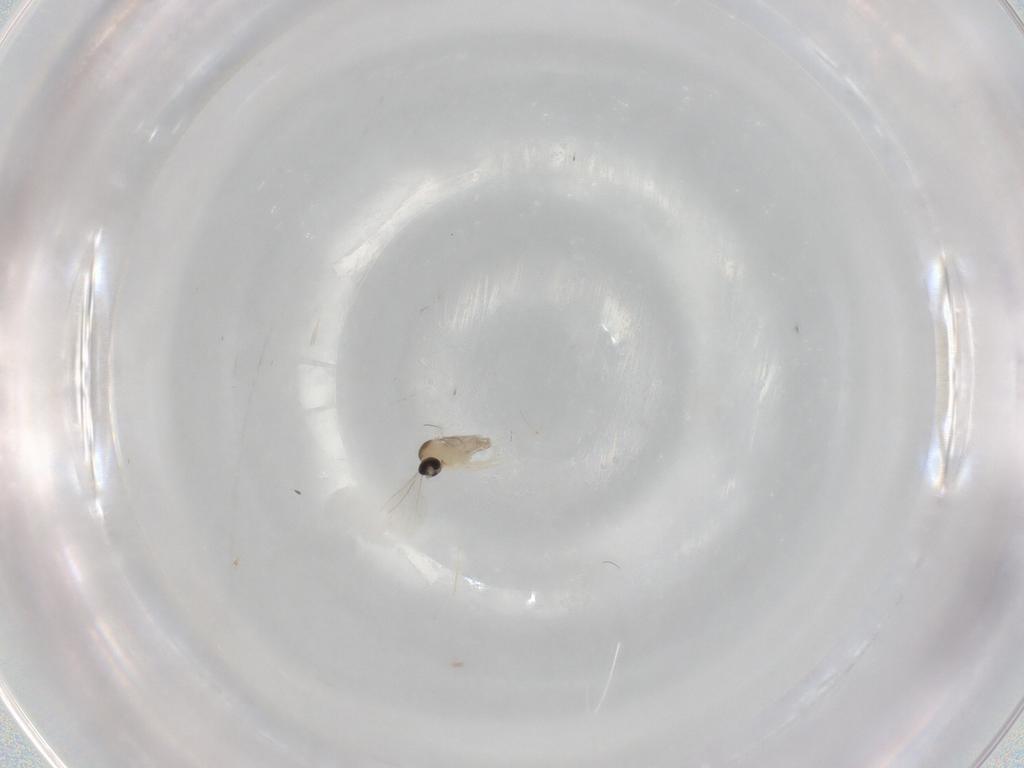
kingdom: Animalia
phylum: Arthropoda
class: Insecta
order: Diptera
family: Cecidomyiidae
